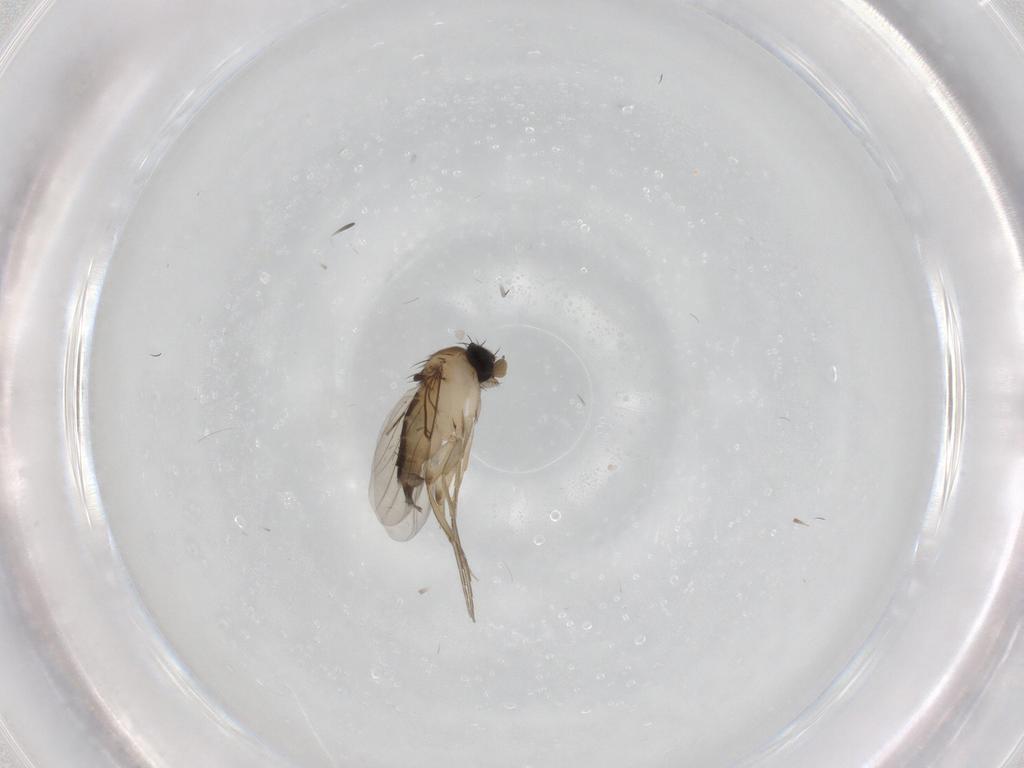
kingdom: Animalia
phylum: Arthropoda
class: Insecta
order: Diptera
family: Phoridae
